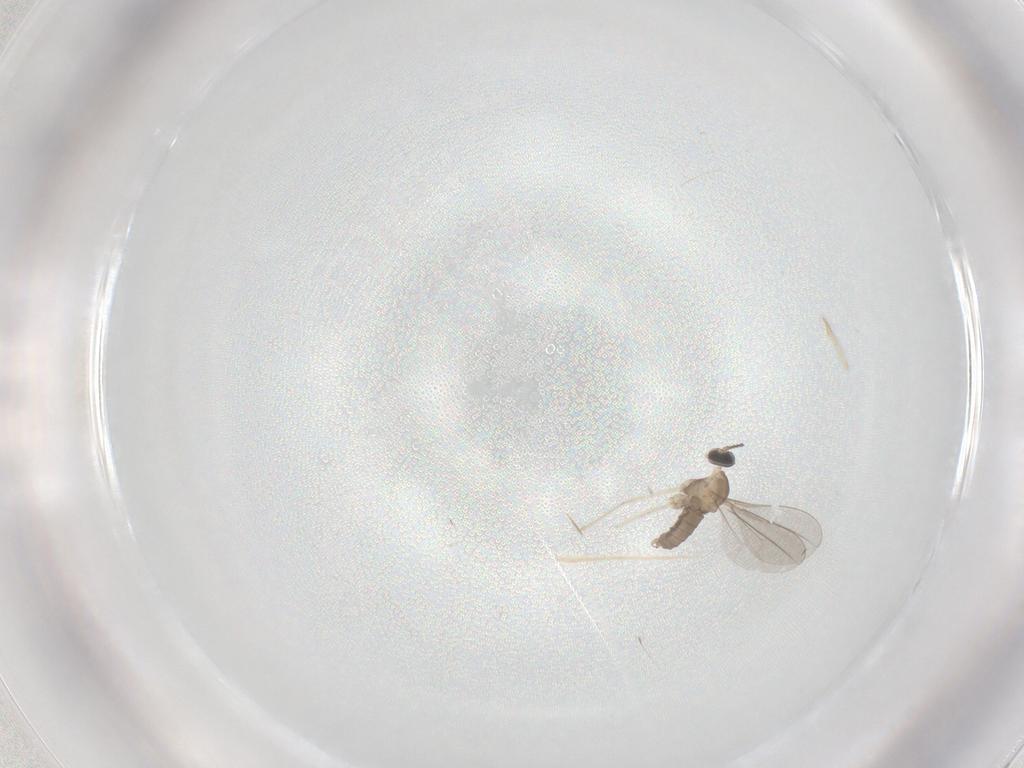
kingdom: Animalia
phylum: Arthropoda
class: Insecta
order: Diptera
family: Cecidomyiidae
